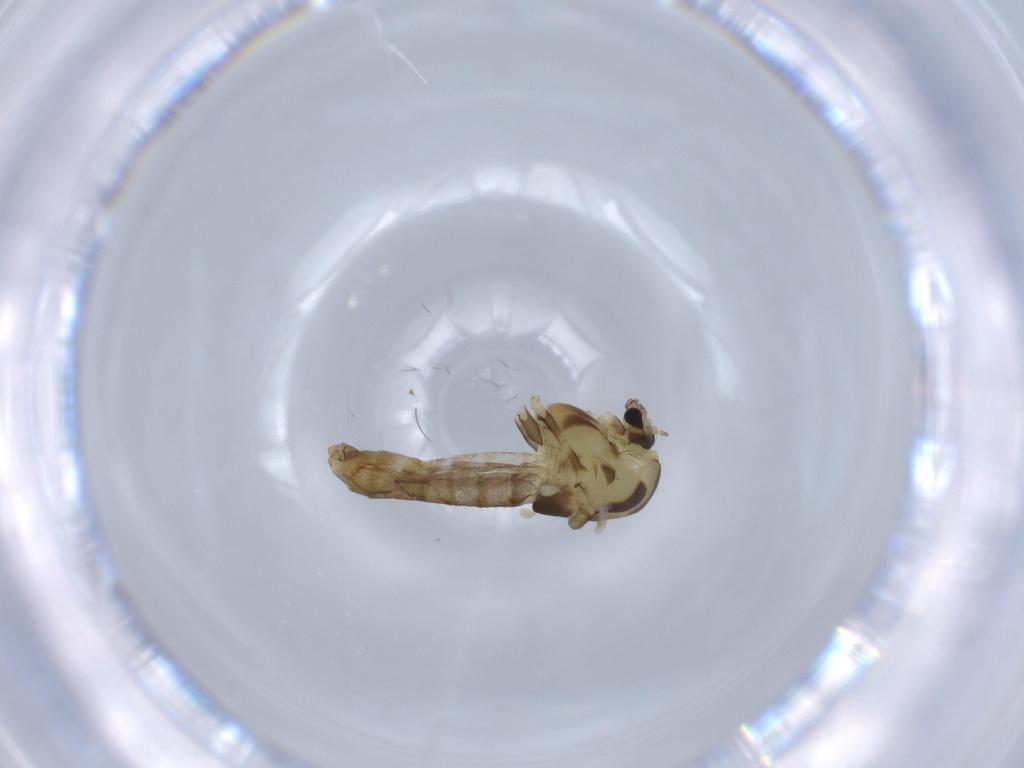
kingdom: Animalia
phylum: Arthropoda
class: Insecta
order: Diptera
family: Chironomidae
